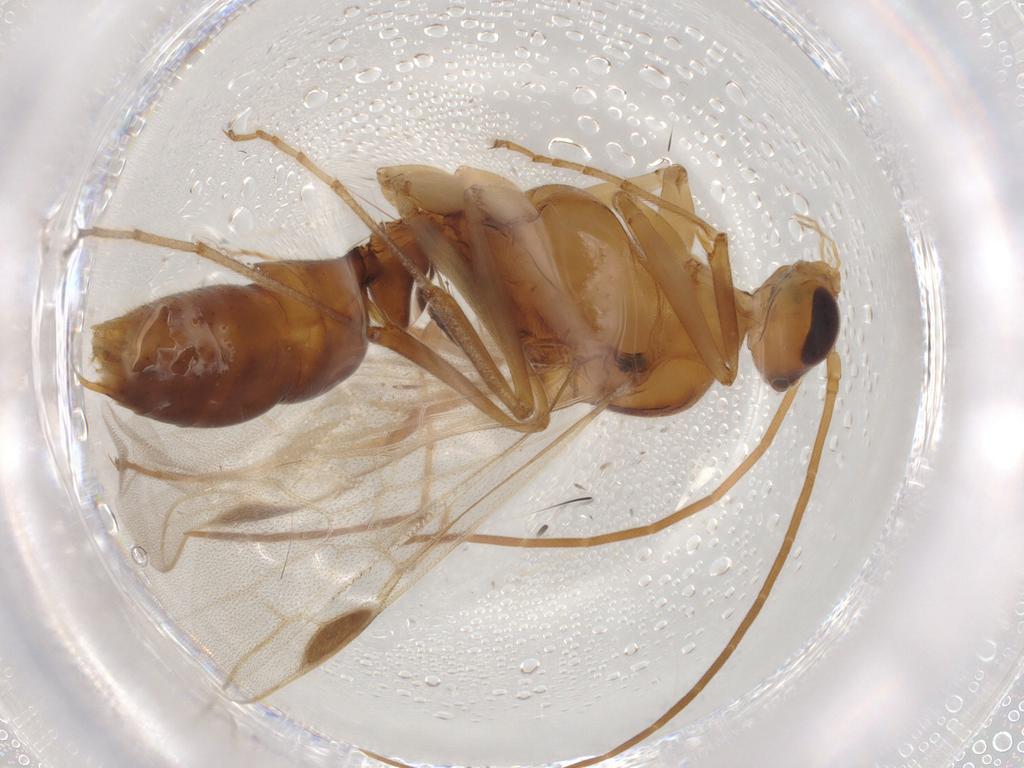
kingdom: Animalia
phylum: Arthropoda
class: Insecta
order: Hymenoptera
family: Formicidae
